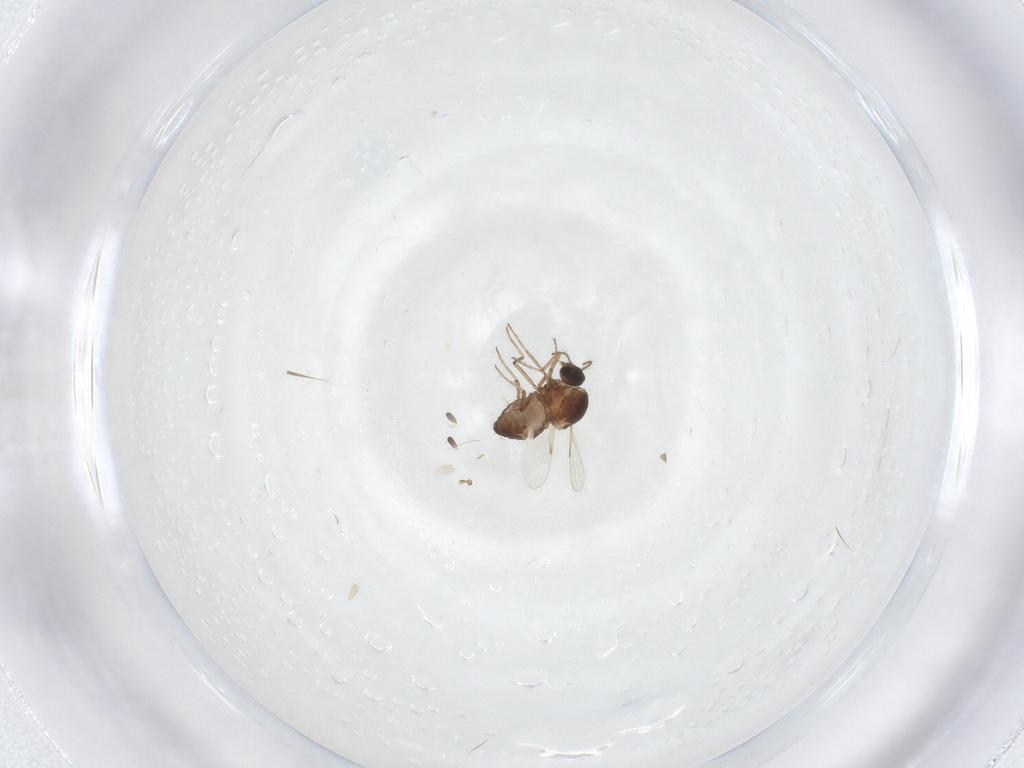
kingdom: Animalia
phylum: Arthropoda
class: Insecta
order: Diptera
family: Ceratopogonidae
